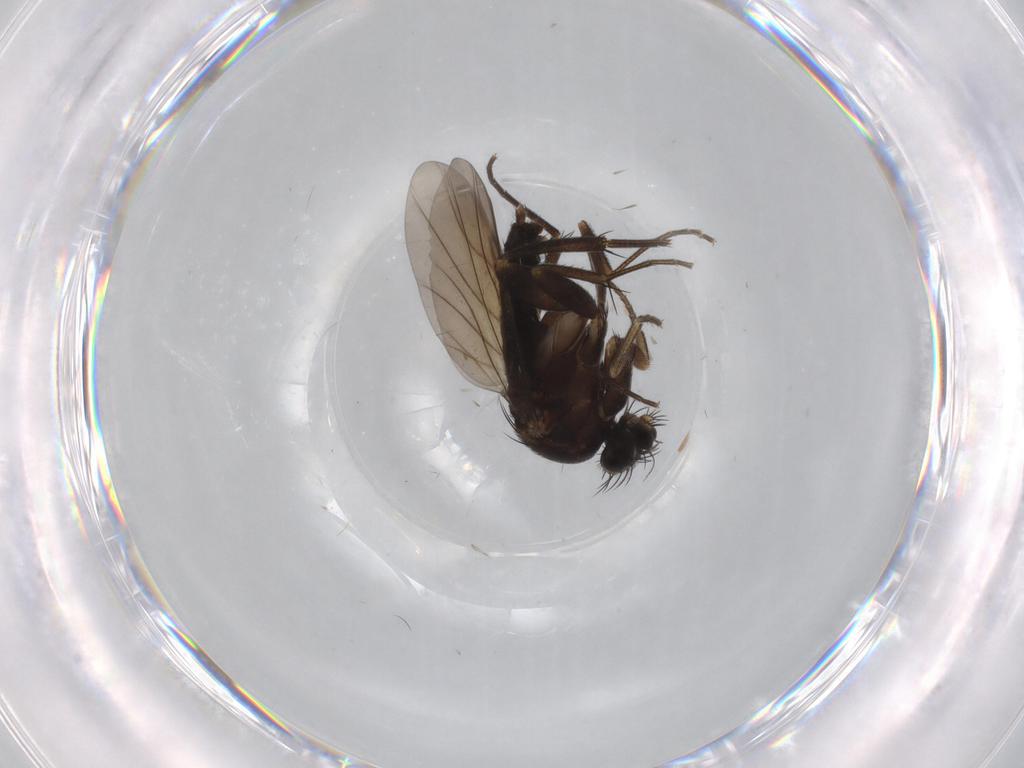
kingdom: Animalia
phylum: Arthropoda
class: Insecta
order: Diptera
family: Phoridae
